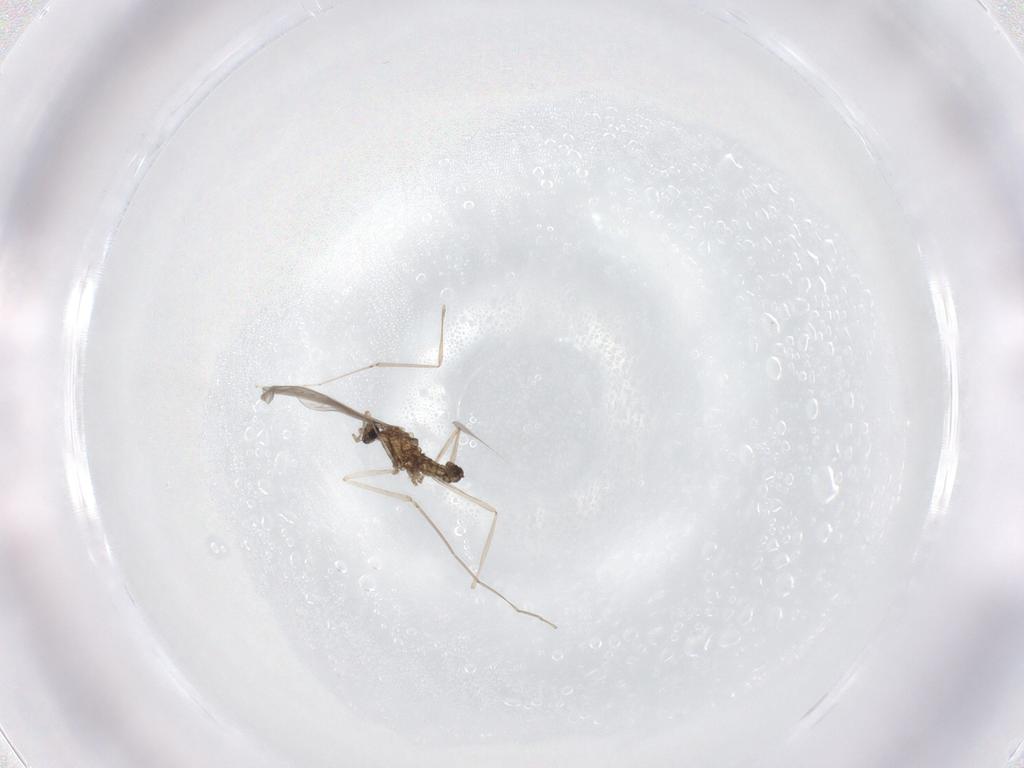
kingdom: Animalia
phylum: Arthropoda
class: Insecta
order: Diptera
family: Cecidomyiidae
